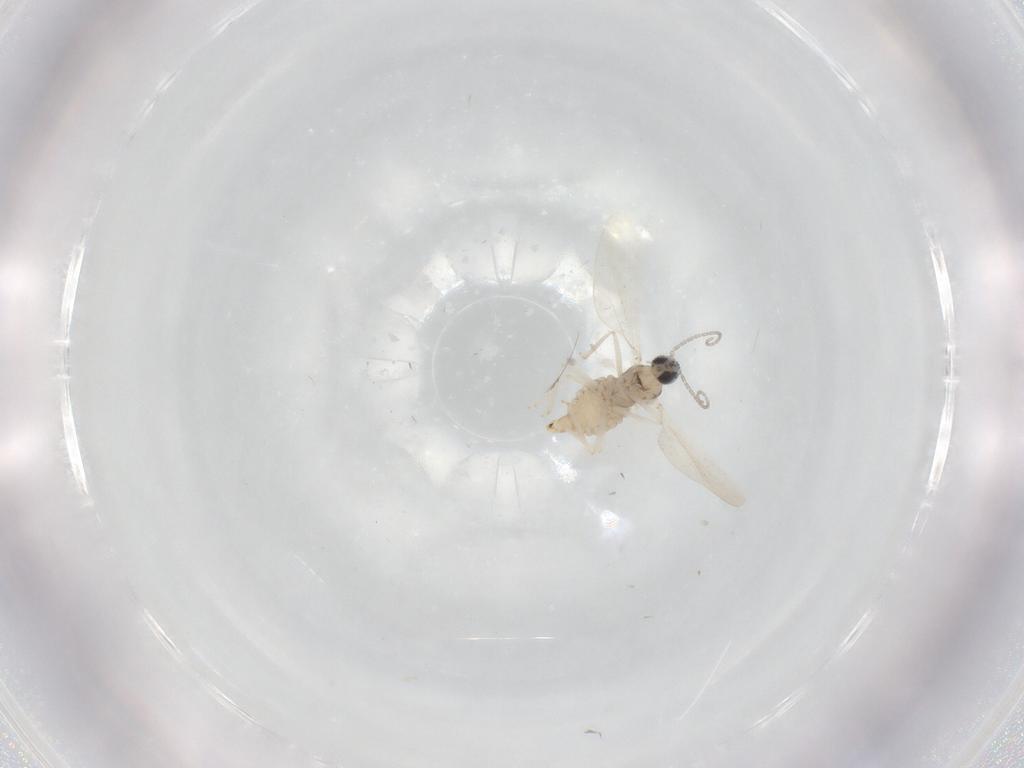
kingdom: Animalia
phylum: Arthropoda
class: Insecta
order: Diptera
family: Cecidomyiidae
